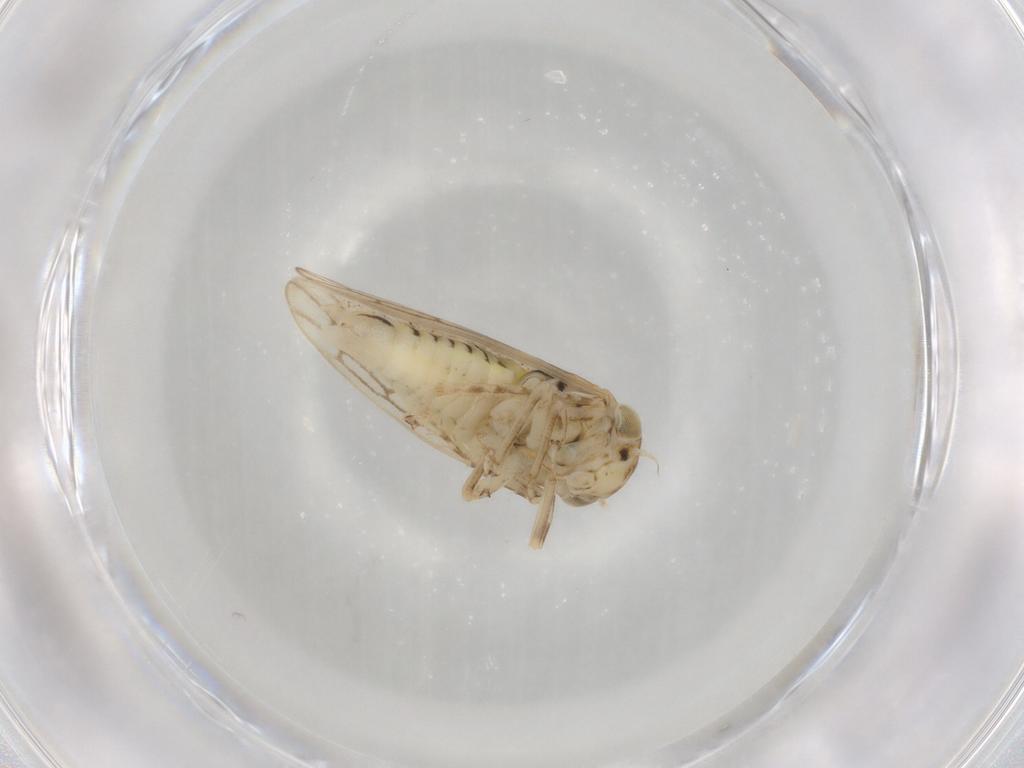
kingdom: Animalia
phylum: Arthropoda
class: Insecta
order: Hemiptera
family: Cicadellidae
